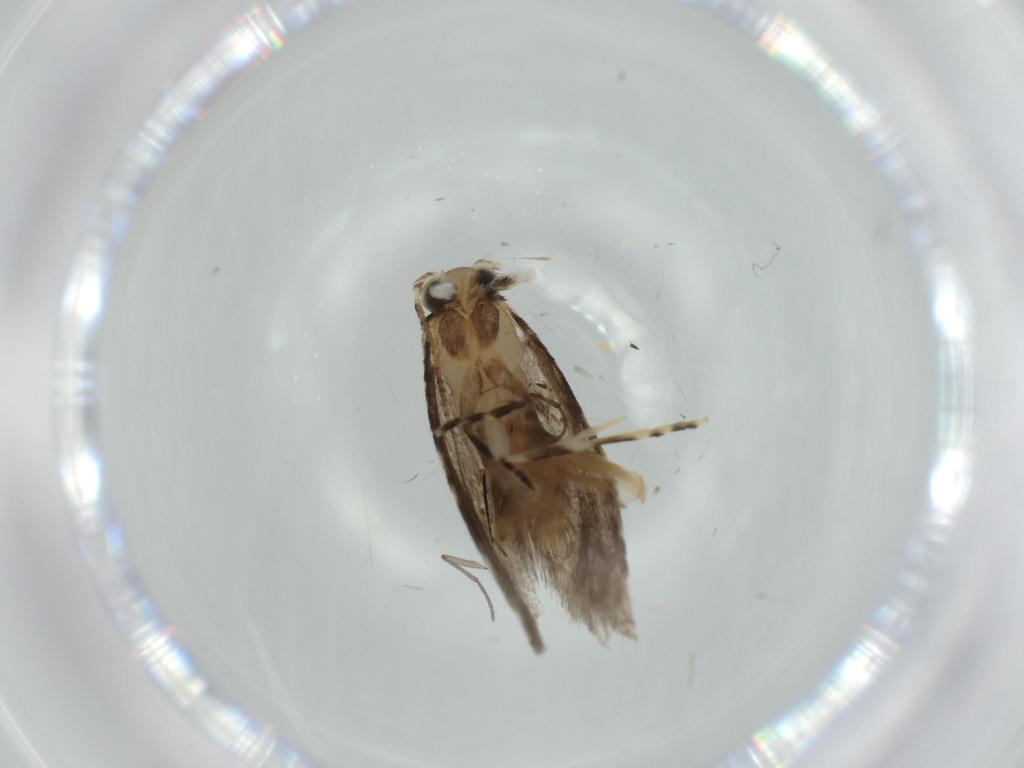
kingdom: Animalia
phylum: Arthropoda
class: Insecta
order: Lepidoptera
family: Tineidae
